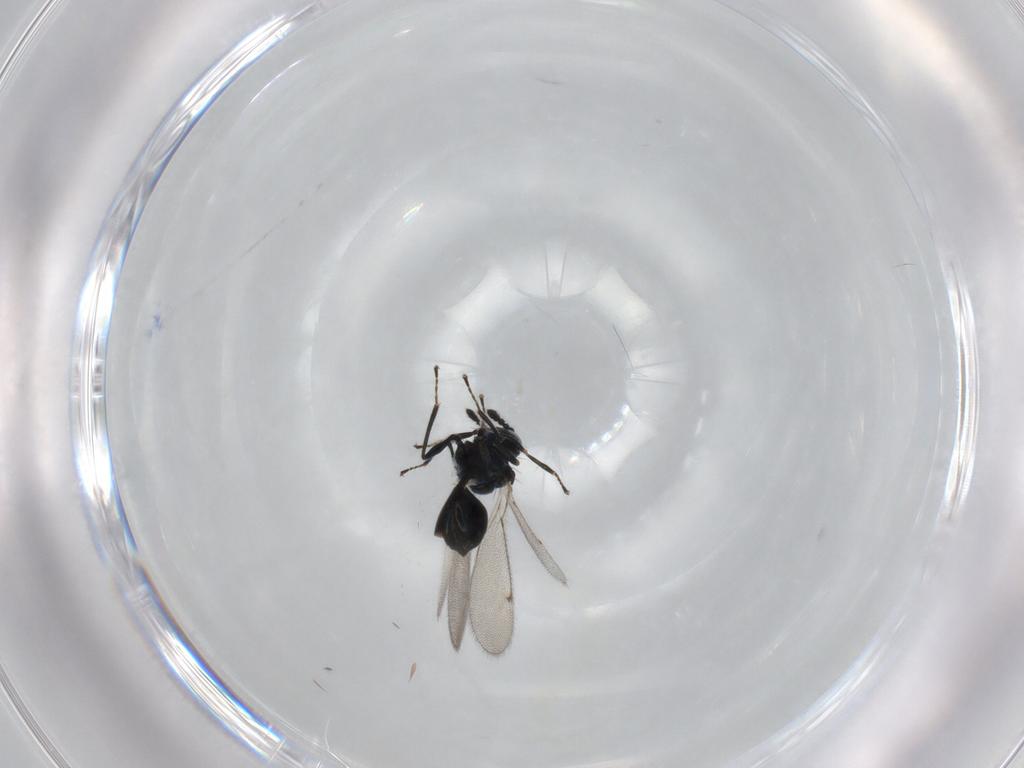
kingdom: Animalia
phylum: Arthropoda
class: Insecta
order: Hymenoptera
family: Eulophidae
